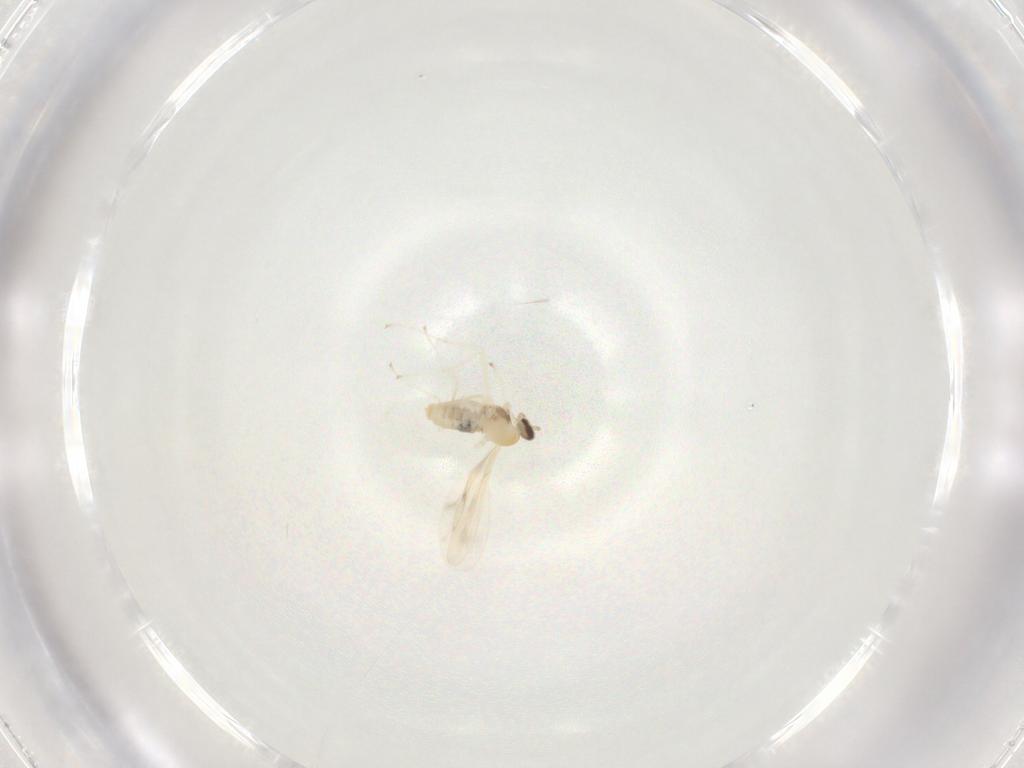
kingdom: Animalia
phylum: Arthropoda
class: Insecta
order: Diptera
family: Cecidomyiidae
